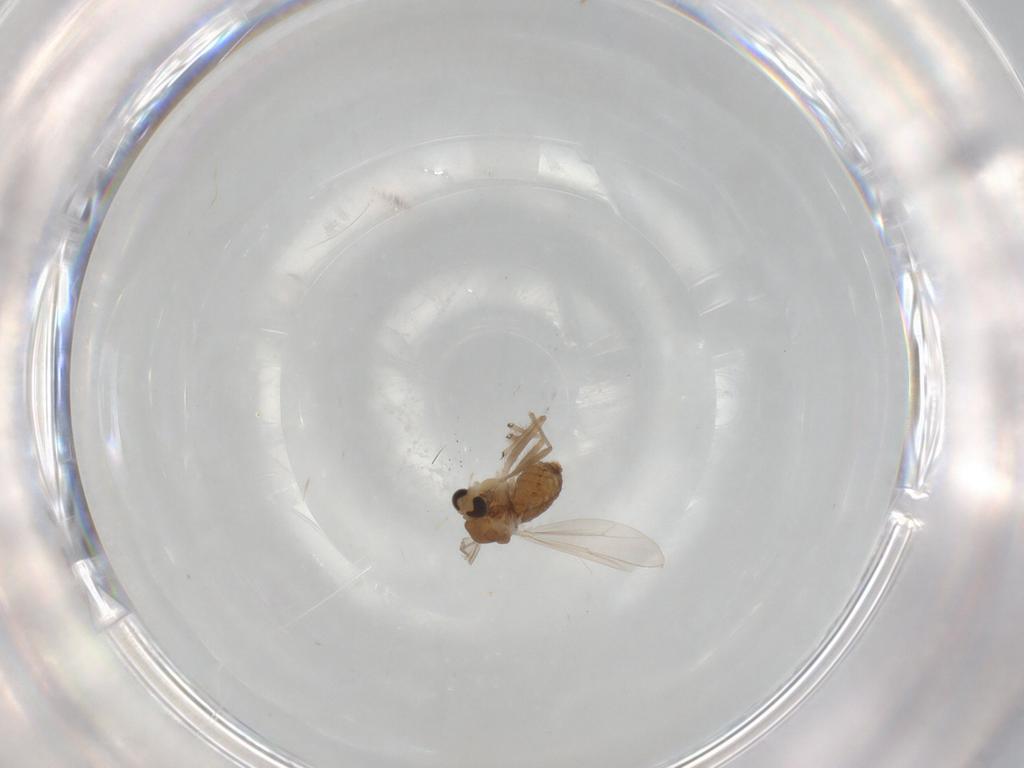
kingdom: Animalia
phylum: Arthropoda
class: Insecta
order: Diptera
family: Chironomidae
